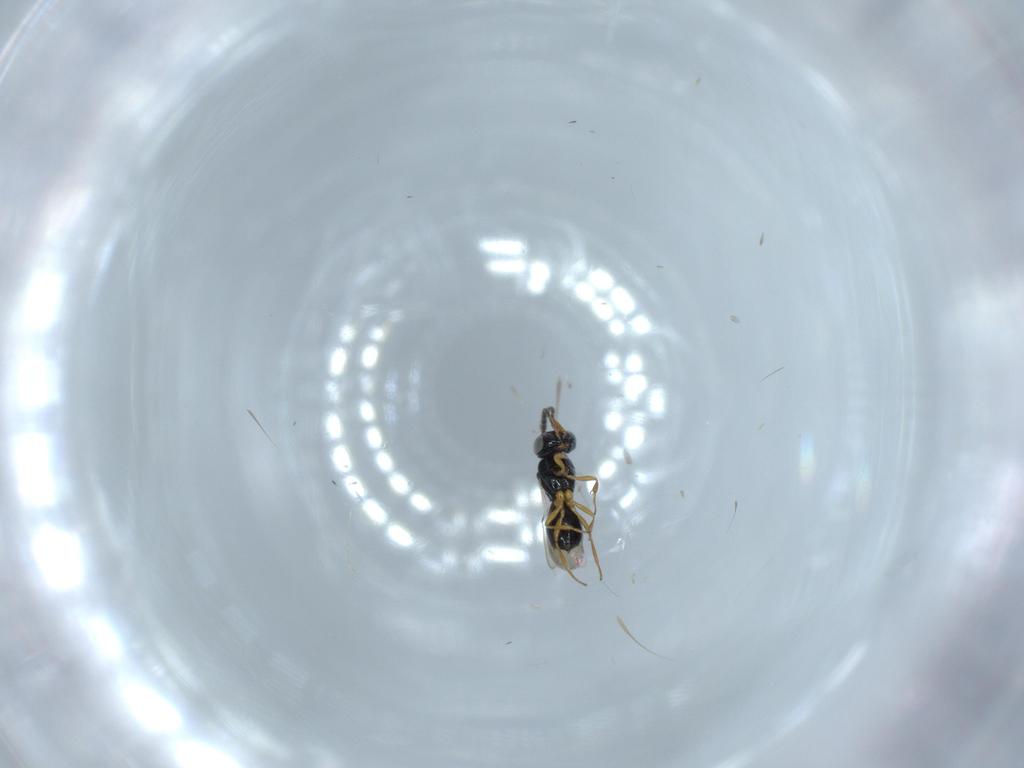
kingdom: Animalia
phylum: Arthropoda
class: Insecta
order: Hymenoptera
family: Scelionidae
